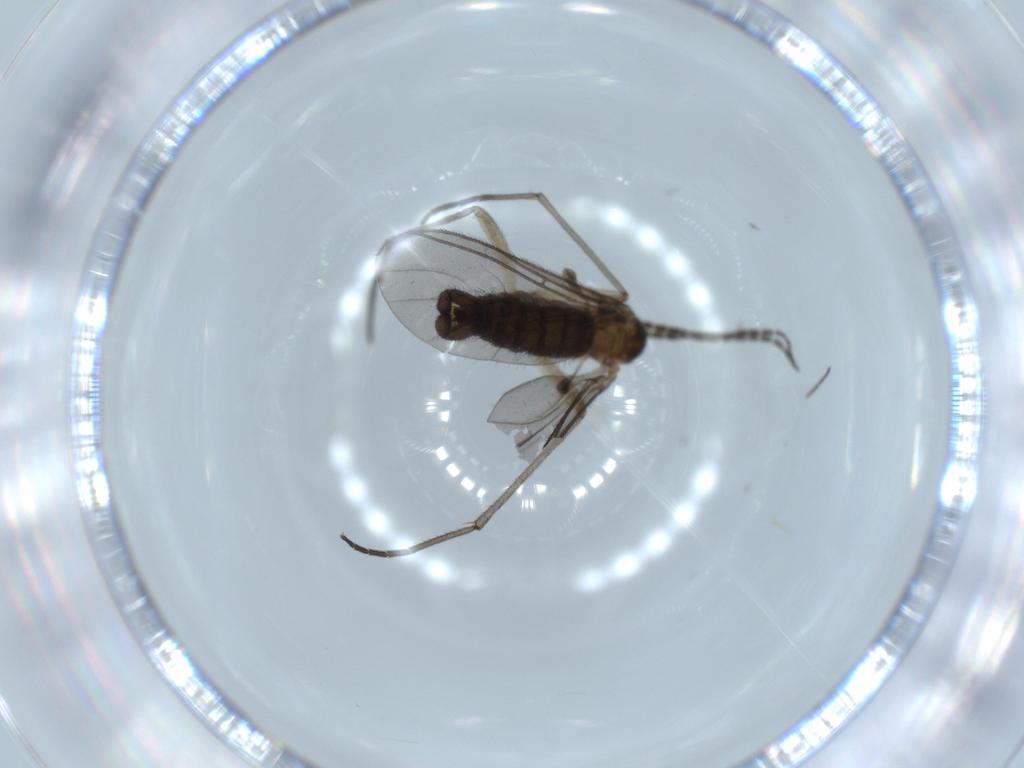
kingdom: Animalia
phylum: Arthropoda
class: Insecta
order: Diptera
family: Sciaridae
